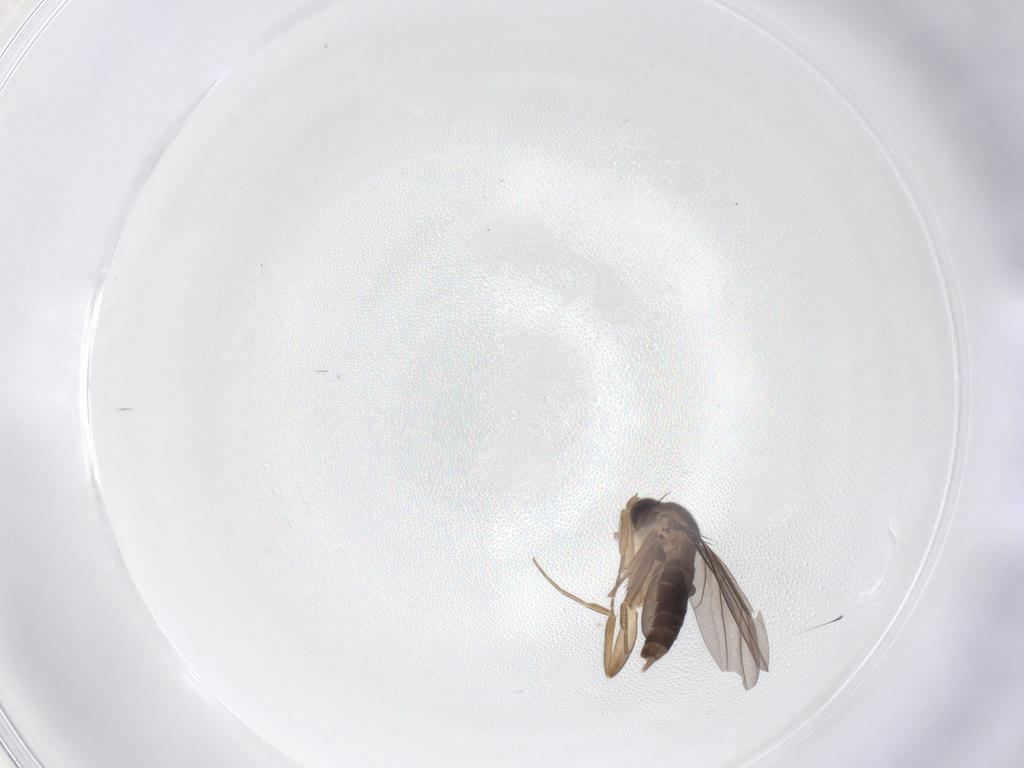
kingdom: Animalia
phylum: Arthropoda
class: Insecta
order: Diptera
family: Phoridae
